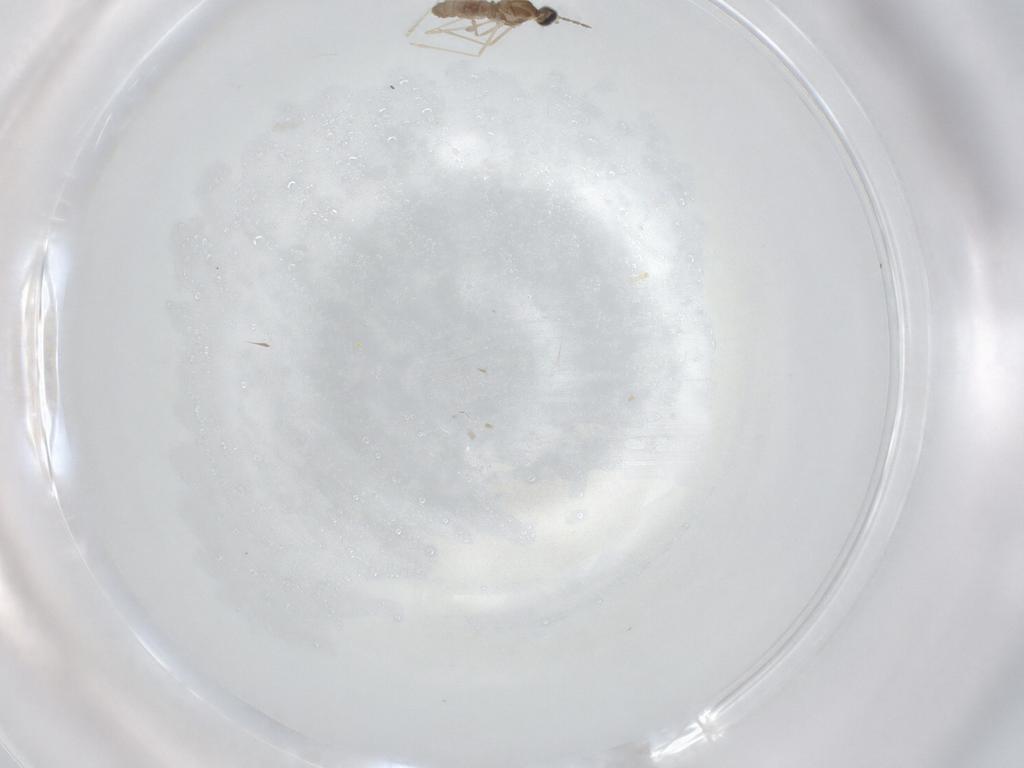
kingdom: Animalia
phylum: Arthropoda
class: Insecta
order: Diptera
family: Cecidomyiidae
